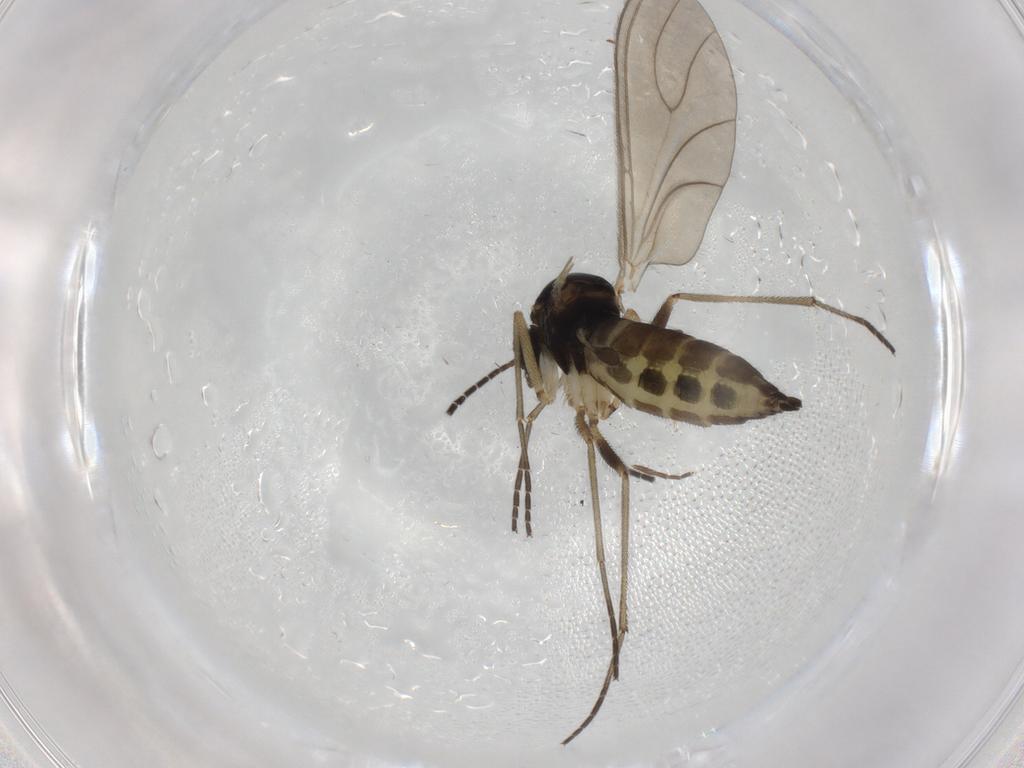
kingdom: Animalia
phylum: Arthropoda
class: Insecta
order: Diptera
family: Sciaridae
